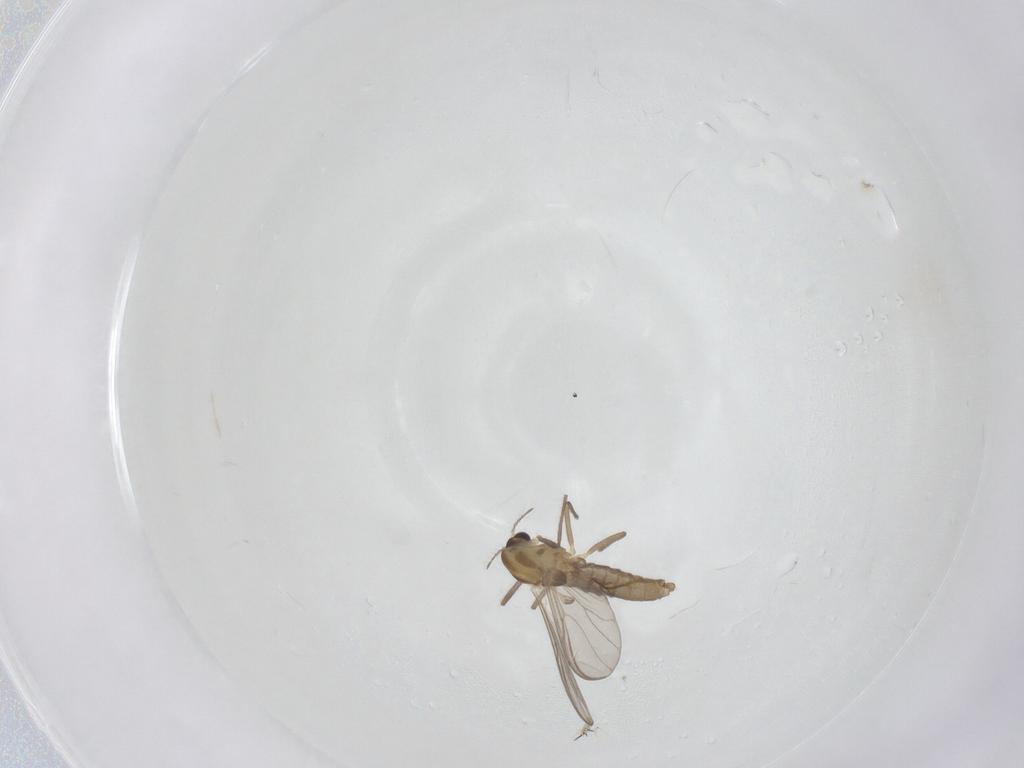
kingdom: Animalia
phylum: Arthropoda
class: Insecta
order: Diptera
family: Chironomidae
